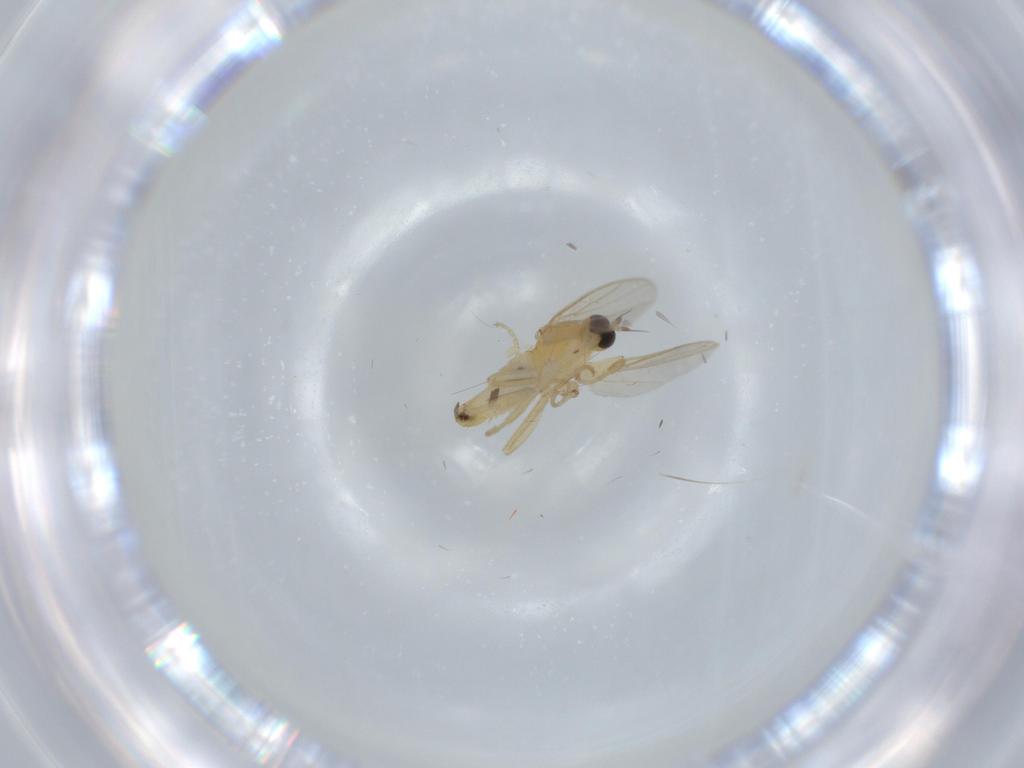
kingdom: Animalia
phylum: Arthropoda
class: Insecta
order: Diptera
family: Hybotidae
